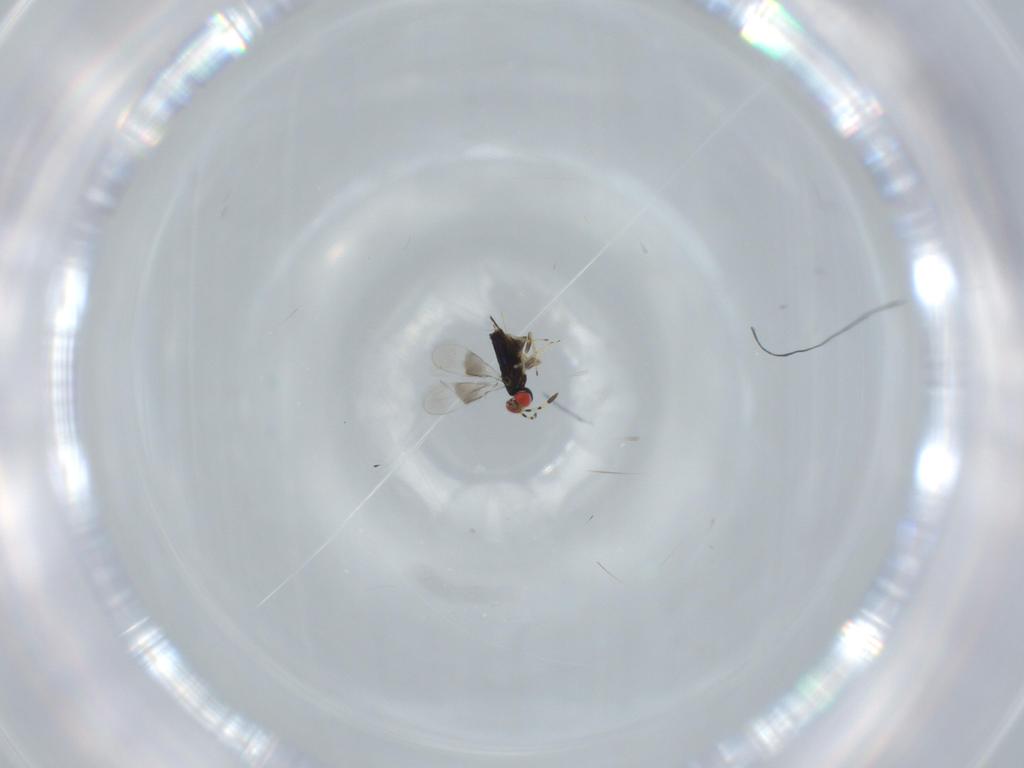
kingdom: Animalia
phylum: Arthropoda
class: Insecta
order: Hymenoptera
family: Azotidae
